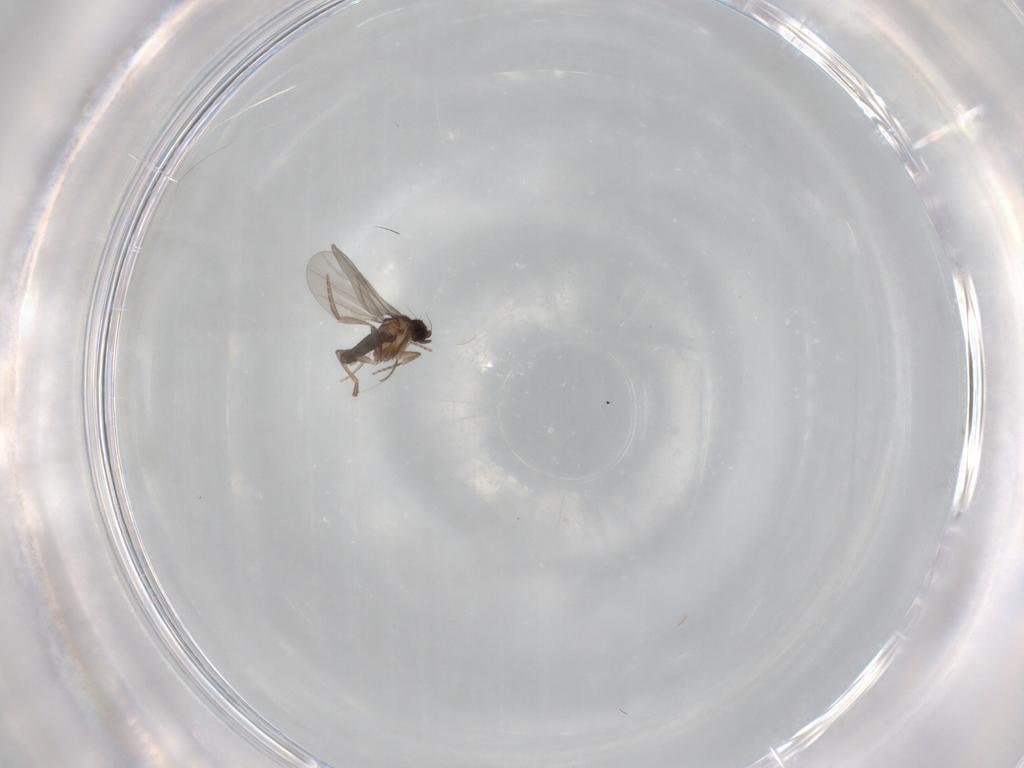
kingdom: Animalia
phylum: Arthropoda
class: Insecta
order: Diptera
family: Phoridae
